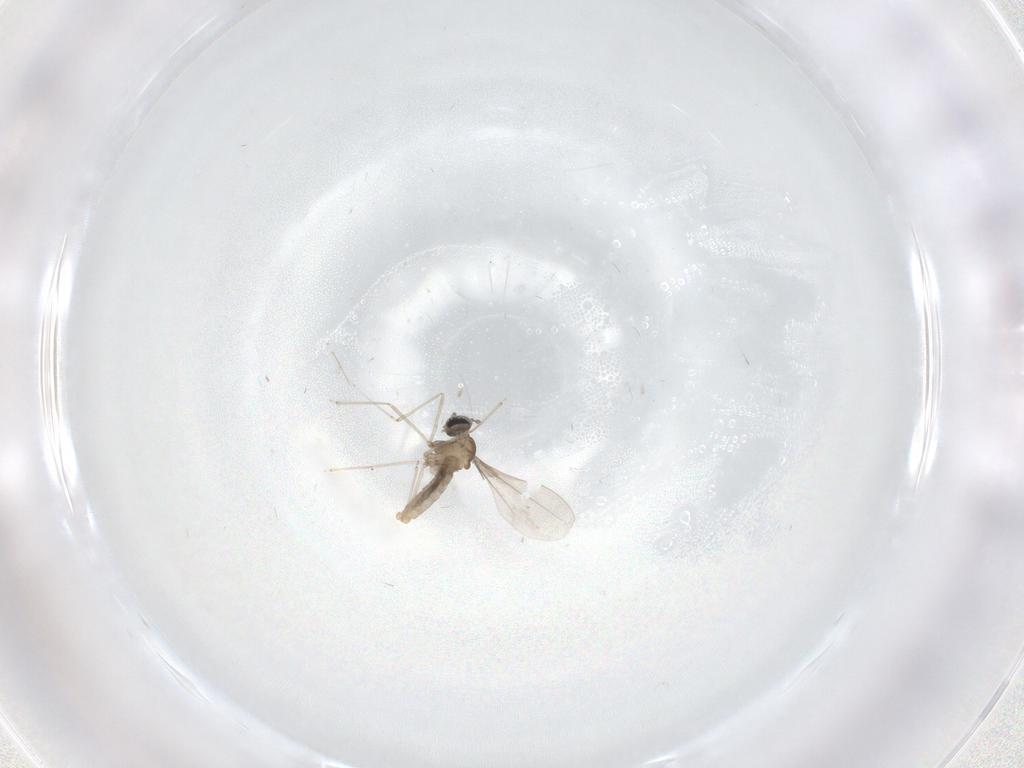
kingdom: Animalia
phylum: Arthropoda
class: Insecta
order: Diptera
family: Cecidomyiidae
